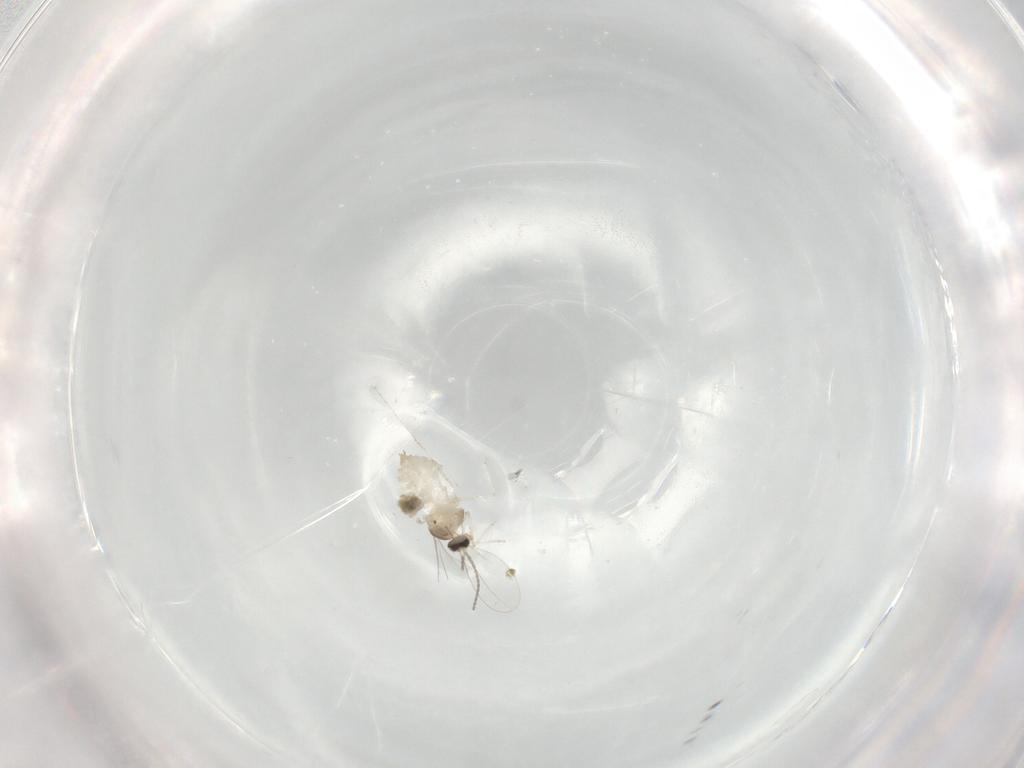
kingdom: Animalia
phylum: Arthropoda
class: Insecta
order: Diptera
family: Cecidomyiidae
